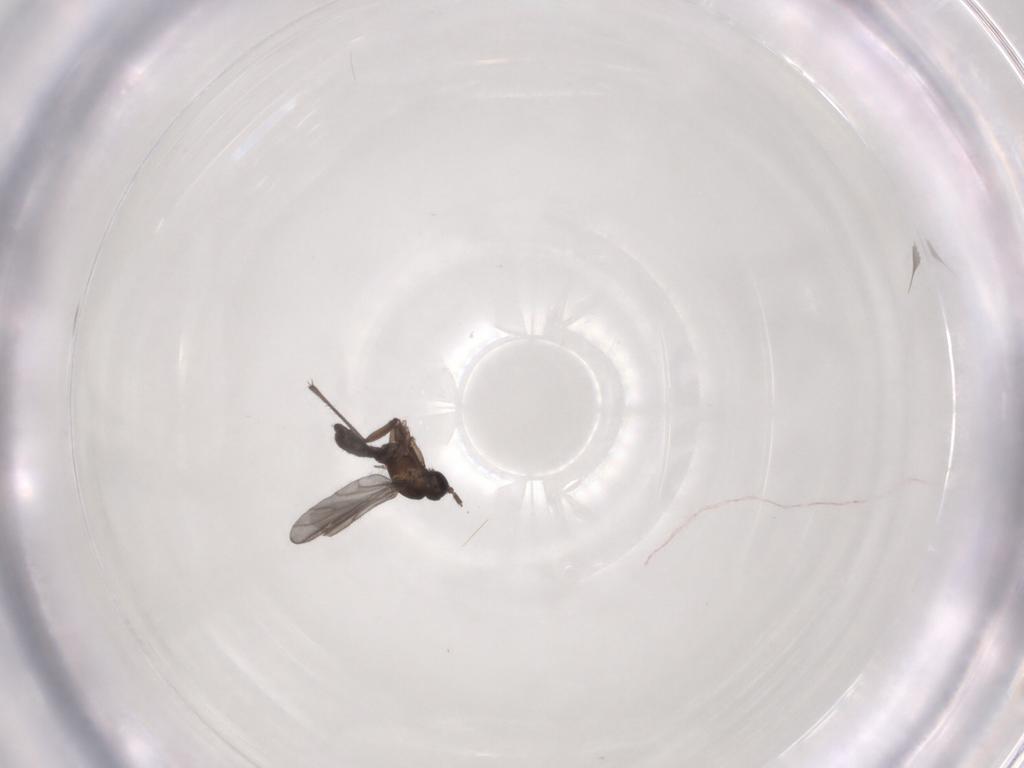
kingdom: Animalia
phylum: Arthropoda
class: Insecta
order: Diptera
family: Sciaridae
